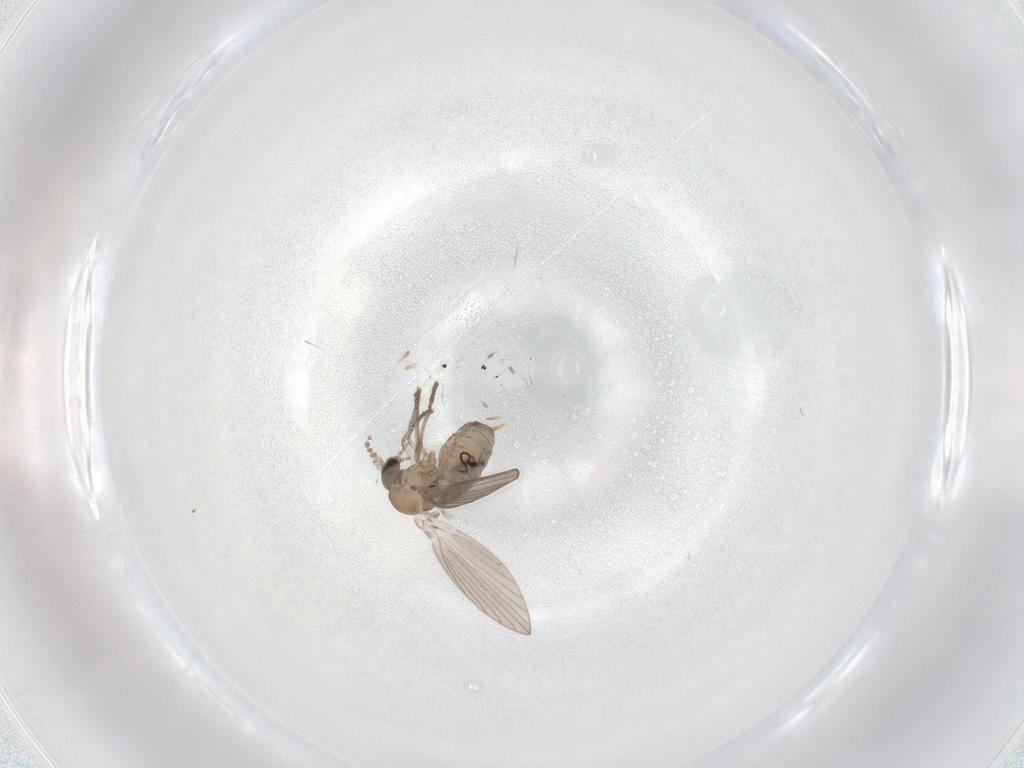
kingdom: Animalia
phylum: Arthropoda
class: Insecta
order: Diptera
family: Psychodidae
